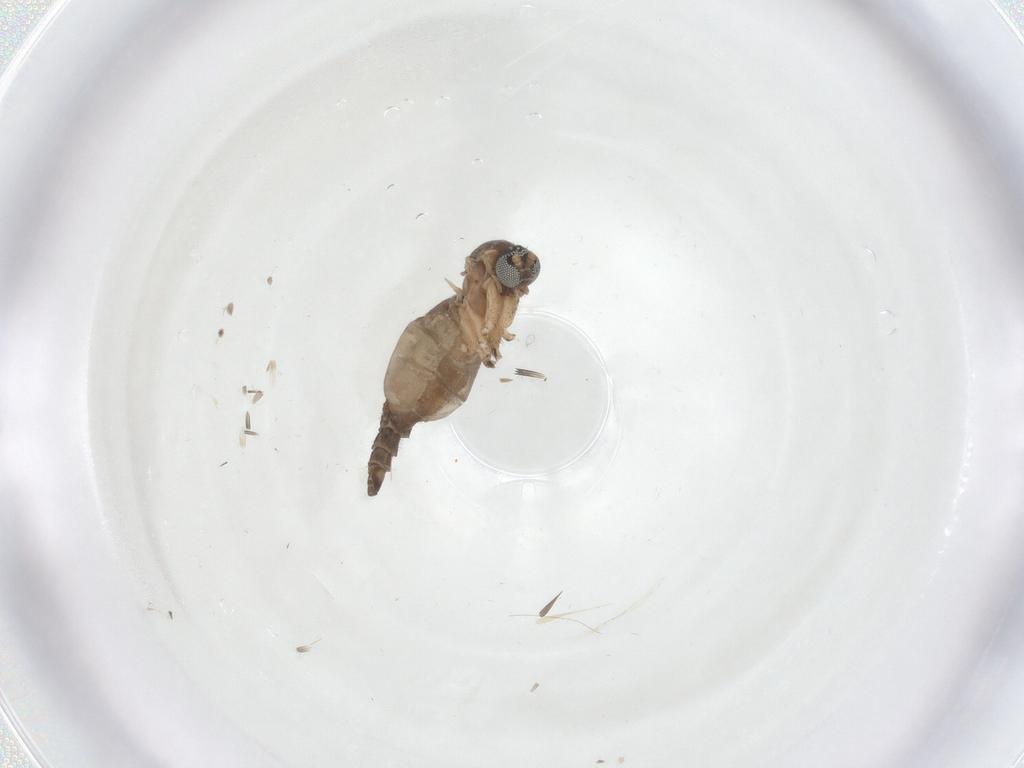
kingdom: Animalia
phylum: Arthropoda
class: Insecta
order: Diptera
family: Sciaridae
